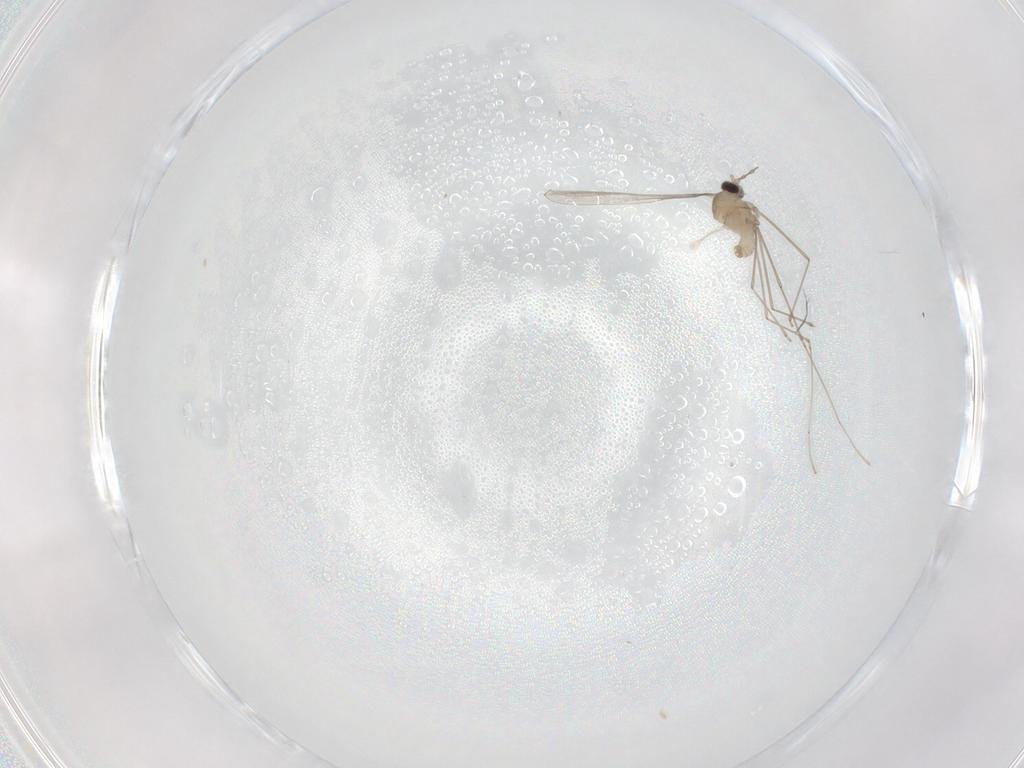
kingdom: Animalia
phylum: Arthropoda
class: Insecta
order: Diptera
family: Cecidomyiidae
